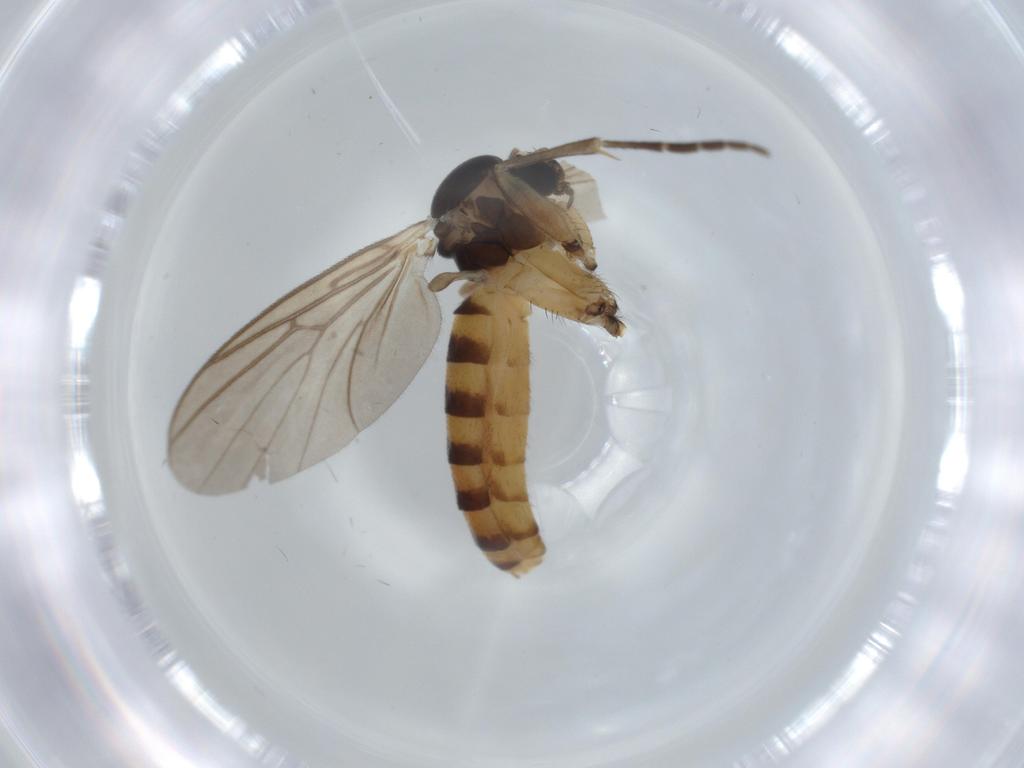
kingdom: Animalia
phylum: Arthropoda
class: Insecta
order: Diptera
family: Mycetophilidae
